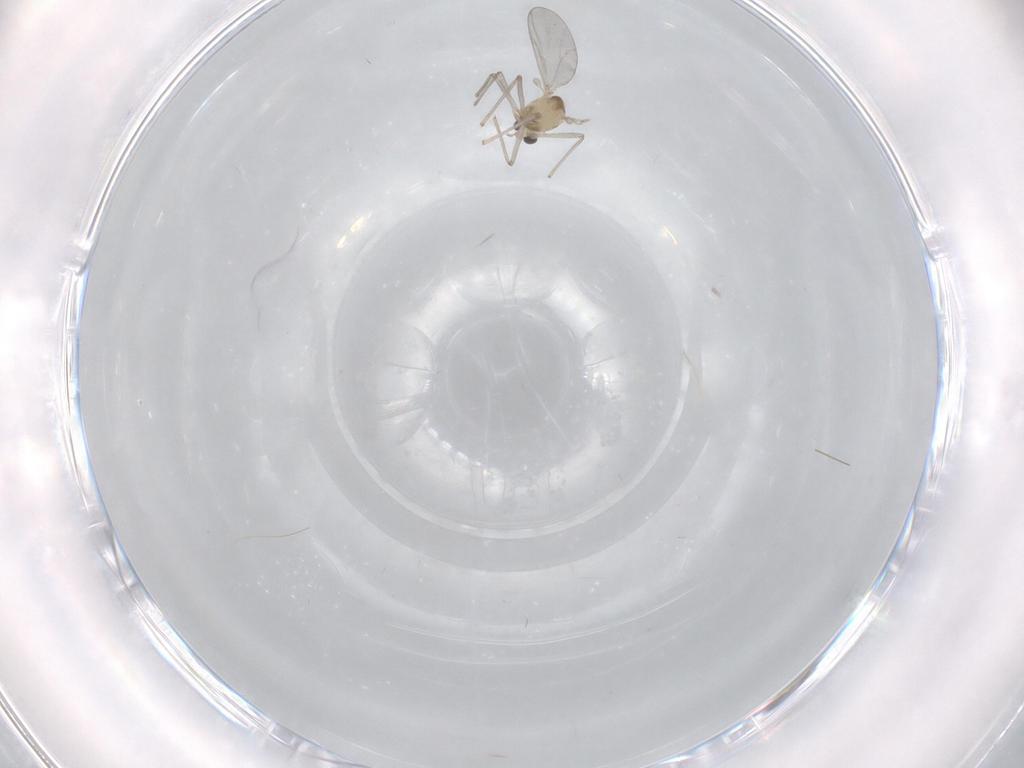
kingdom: Animalia
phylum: Arthropoda
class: Insecta
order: Diptera
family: Chironomidae
